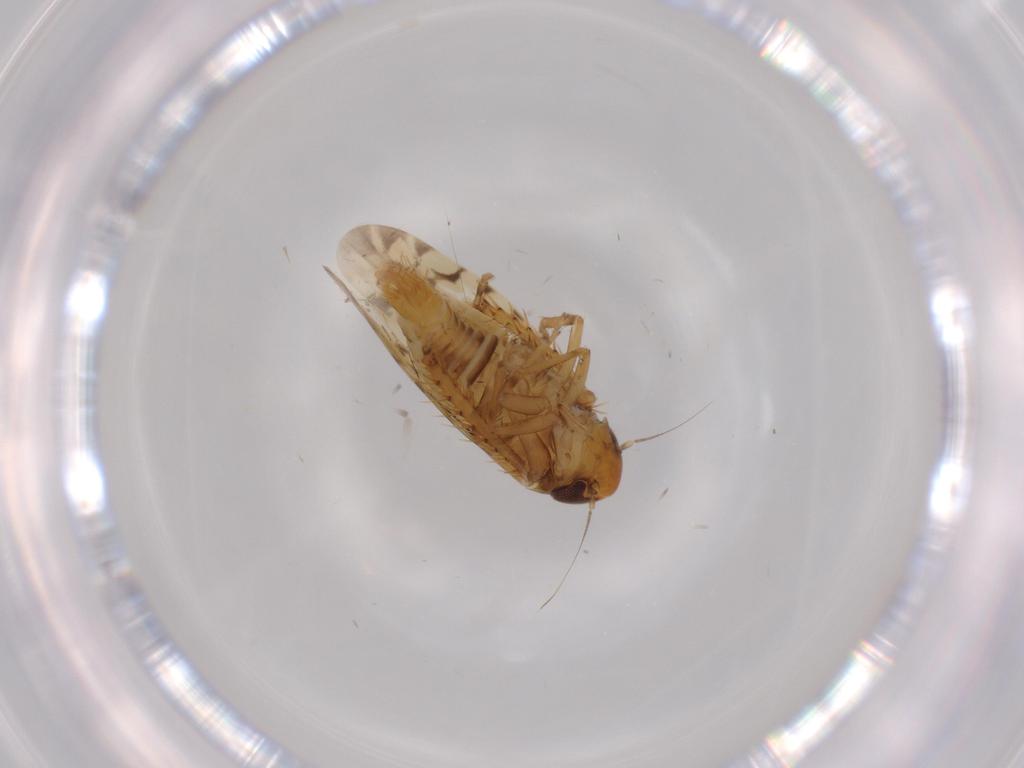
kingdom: Animalia
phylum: Arthropoda
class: Insecta
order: Hemiptera
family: Cicadellidae
